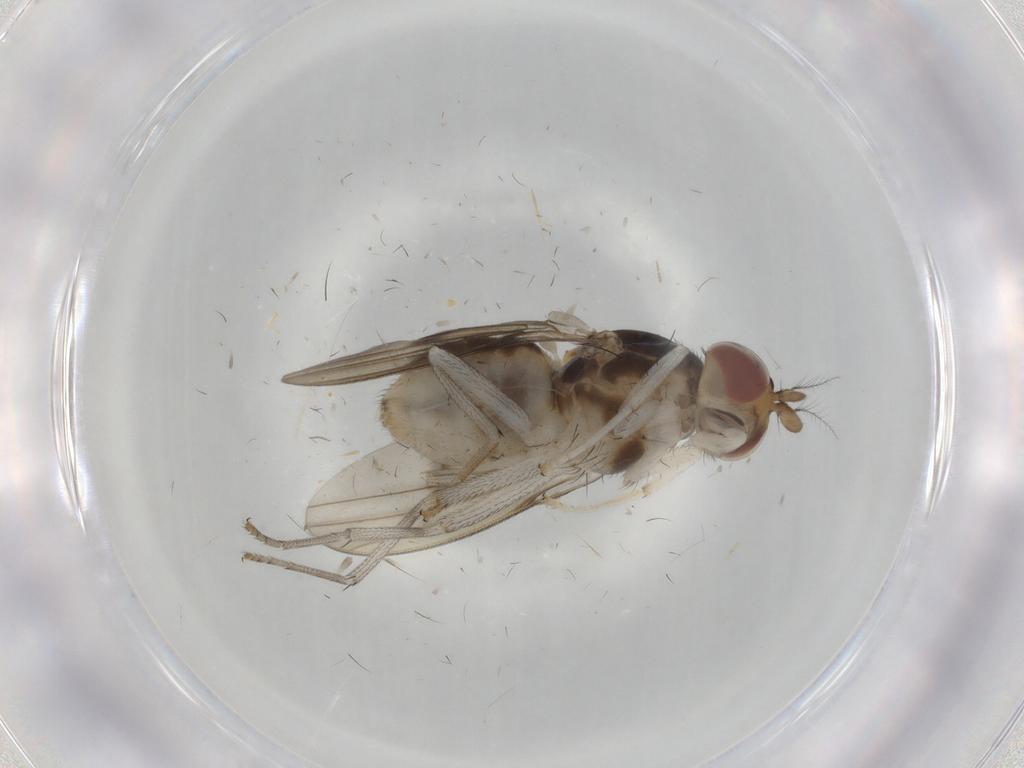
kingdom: Animalia
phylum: Arthropoda
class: Insecta
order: Diptera
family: Sciaridae
